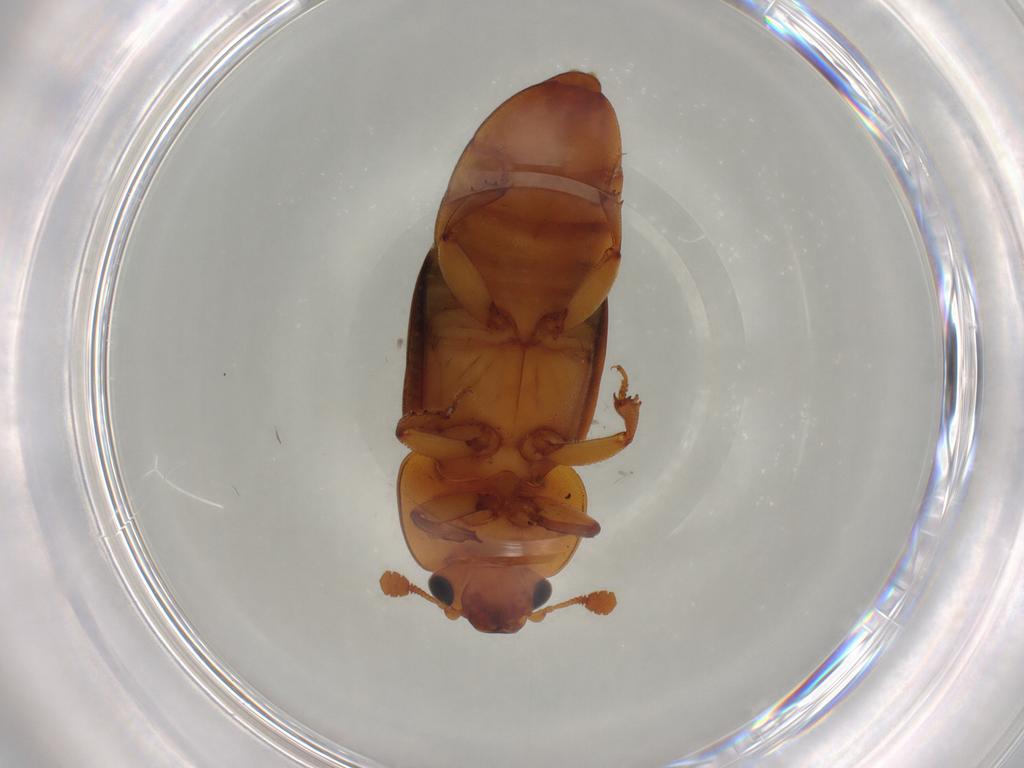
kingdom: Animalia
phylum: Arthropoda
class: Insecta
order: Coleoptera
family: Nitidulidae
